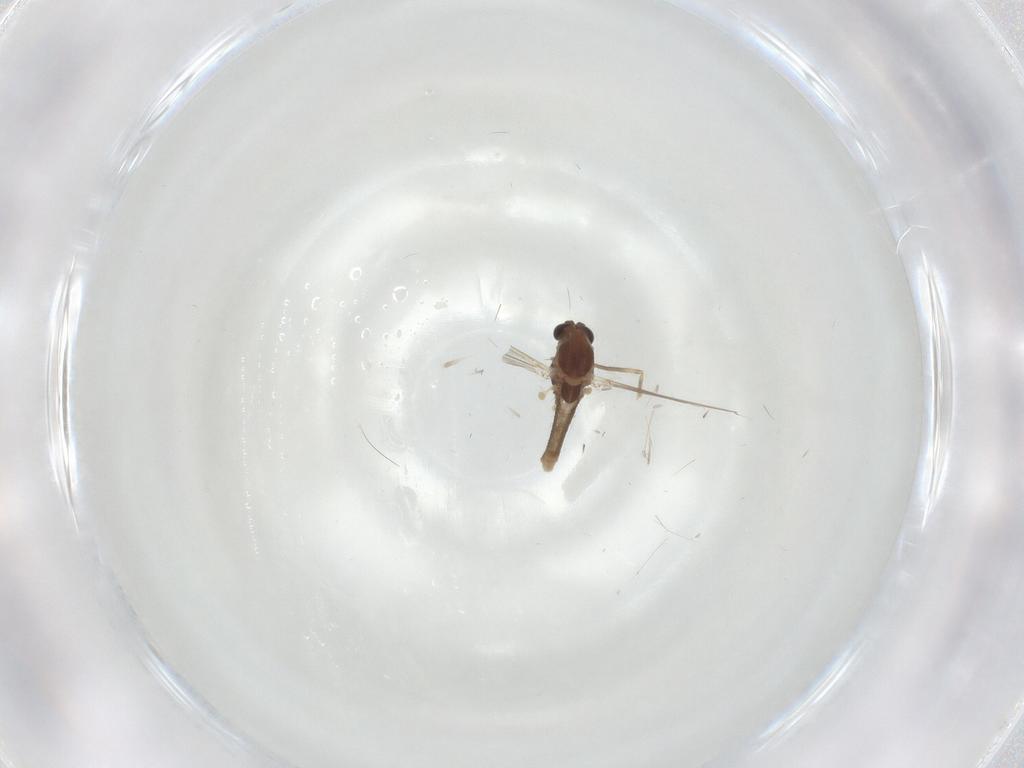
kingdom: Animalia
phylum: Arthropoda
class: Insecta
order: Diptera
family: Chironomidae
